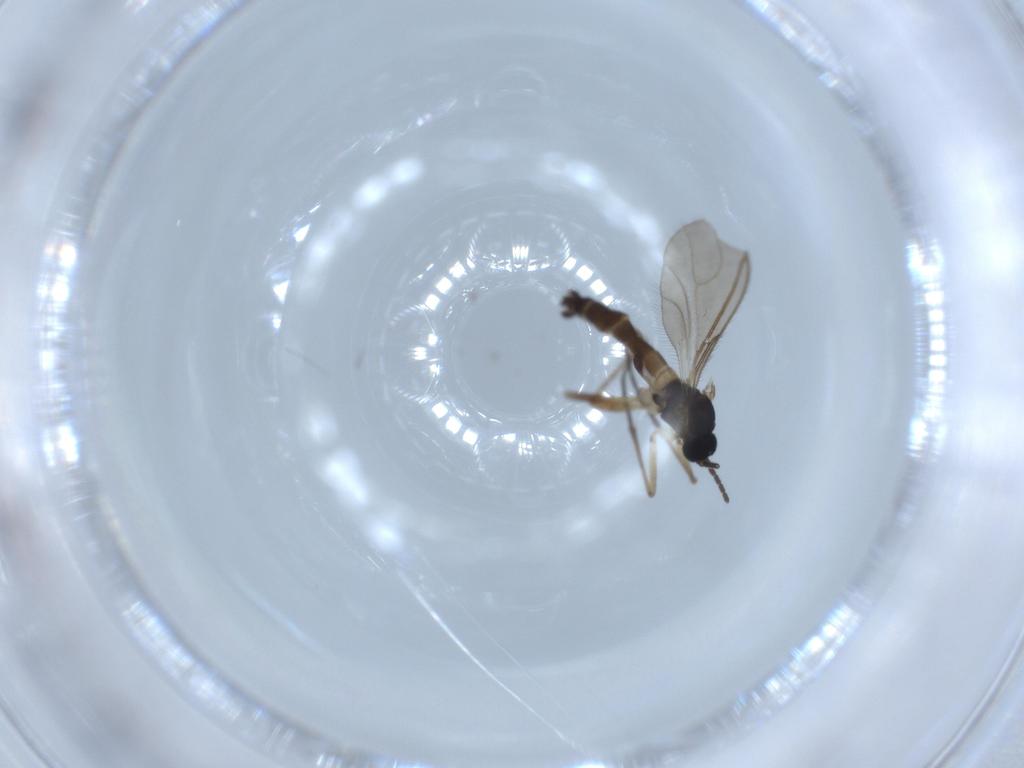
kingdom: Animalia
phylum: Arthropoda
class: Insecta
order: Diptera
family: Sciaridae
